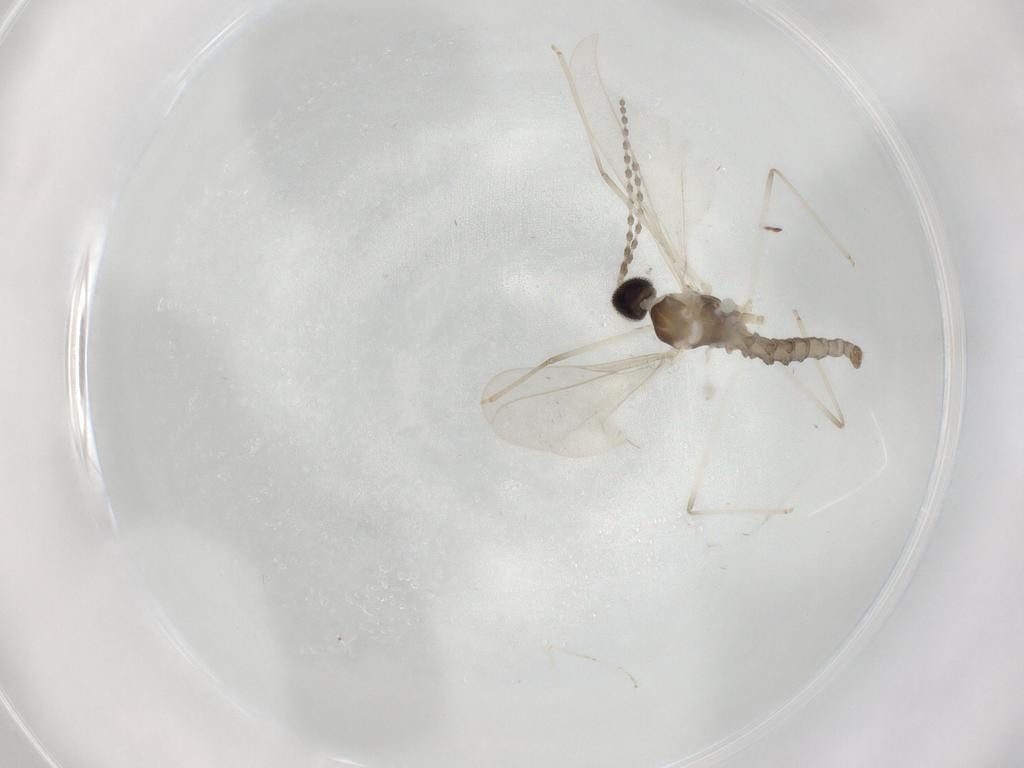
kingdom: Animalia
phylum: Arthropoda
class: Insecta
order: Diptera
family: Cecidomyiidae
